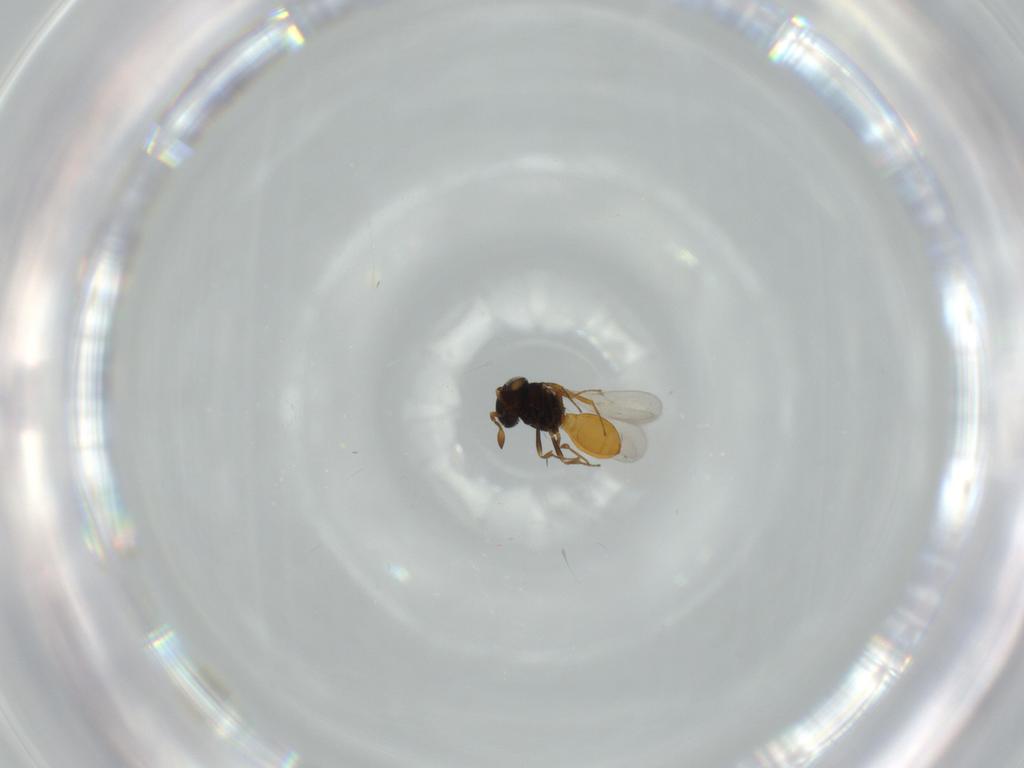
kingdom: Animalia
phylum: Arthropoda
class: Insecta
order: Hymenoptera
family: Scelionidae
